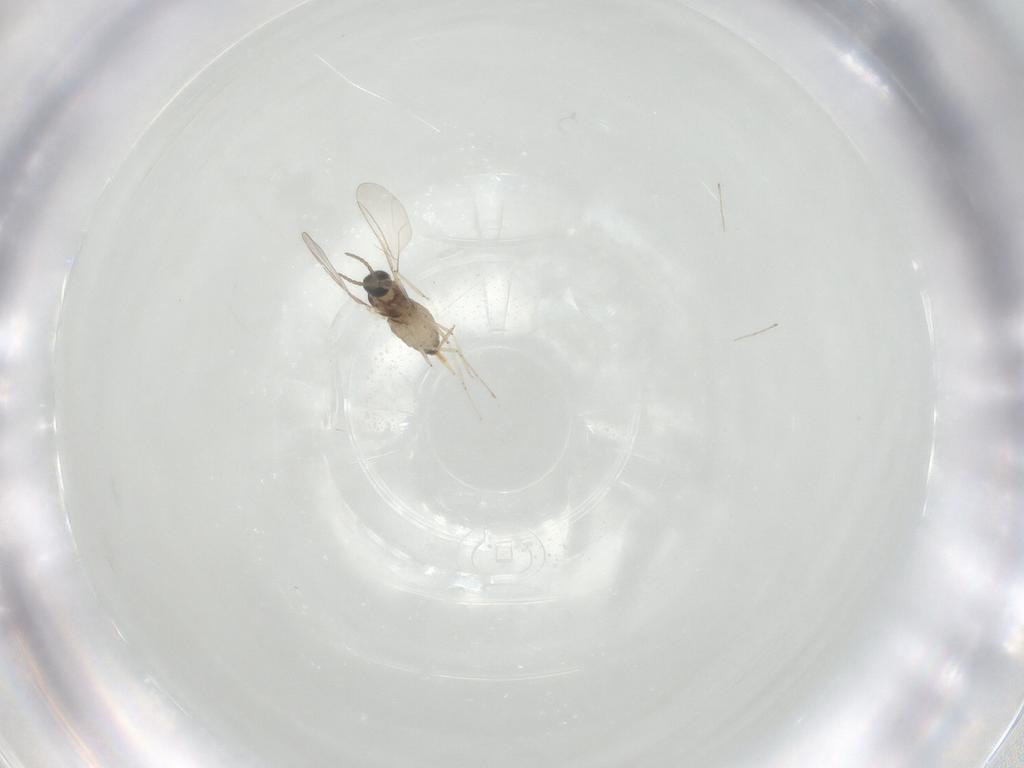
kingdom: Animalia
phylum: Arthropoda
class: Insecta
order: Diptera
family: Cecidomyiidae
